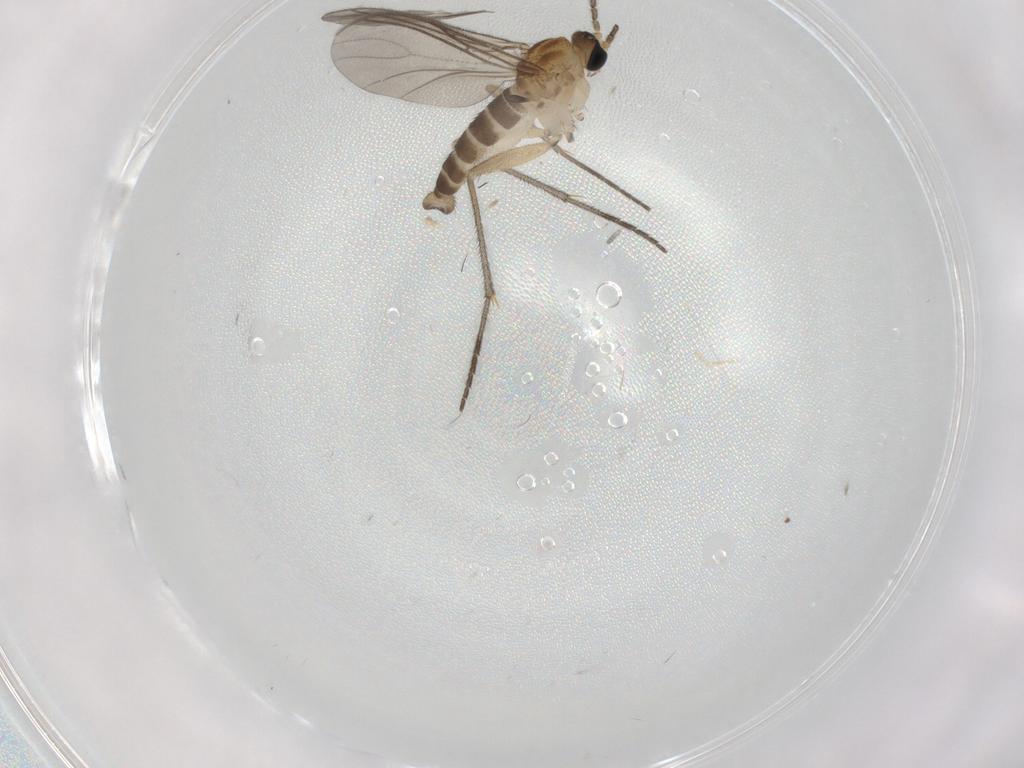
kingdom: Animalia
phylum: Arthropoda
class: Insecta
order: Diptera
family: Sciaridae
